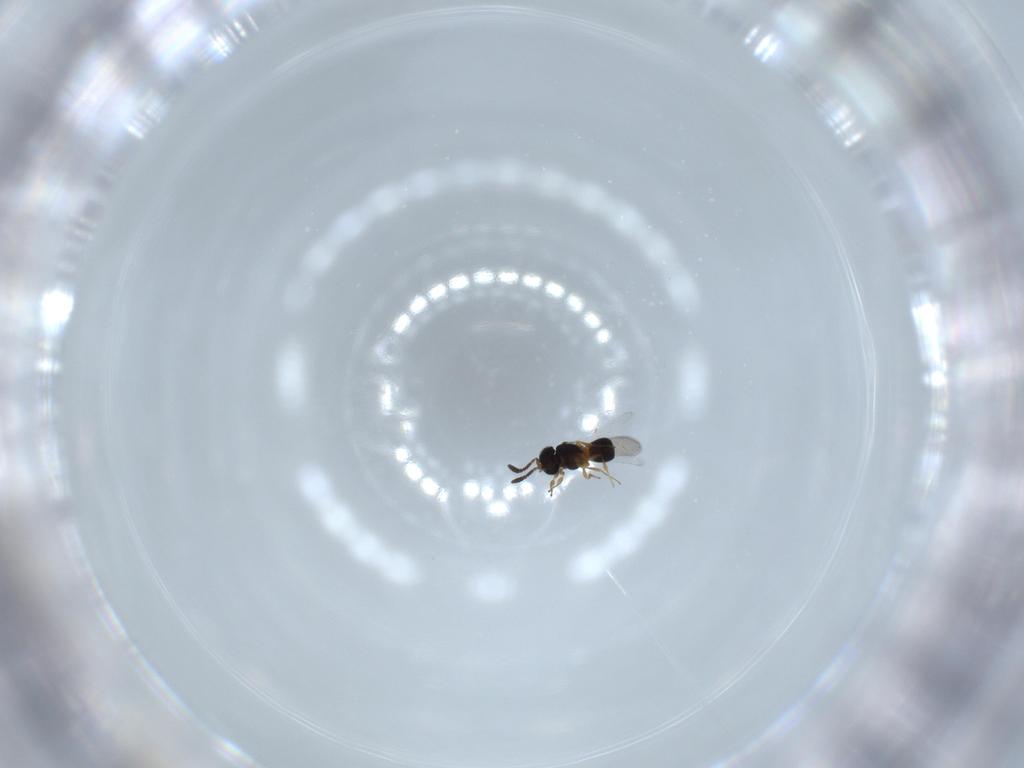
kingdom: Animalia
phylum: Arthropoda
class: Insecta
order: Hymenoptera
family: Scelionidae
